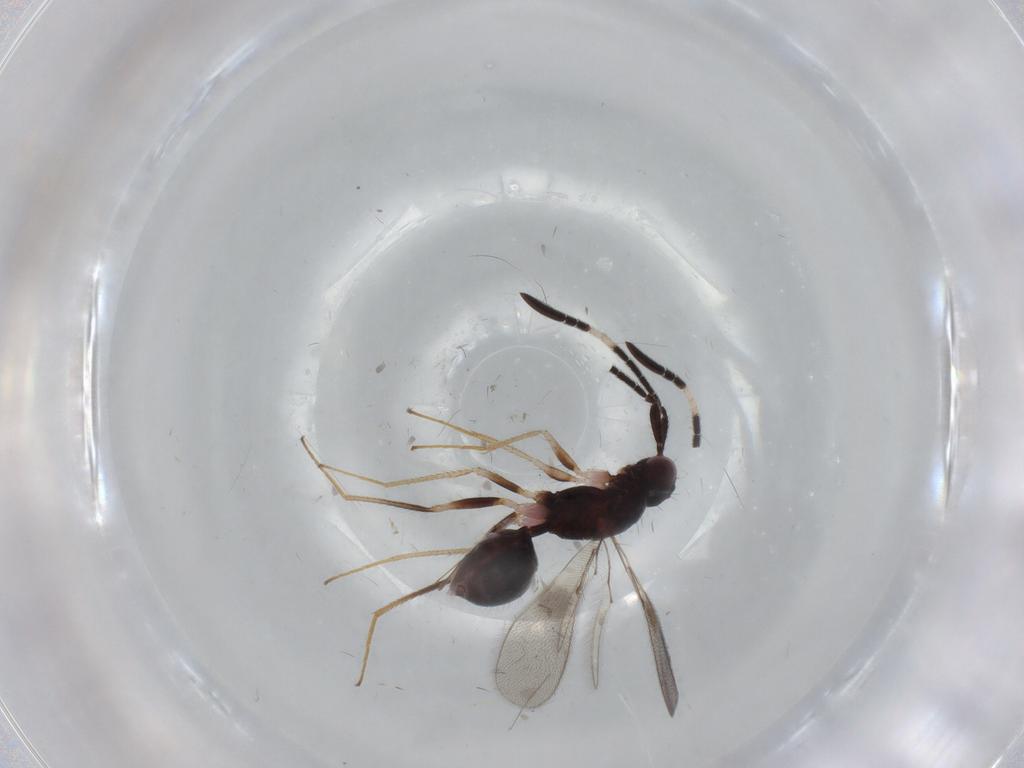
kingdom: Animalia
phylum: Arthropoda
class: Insecta
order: Hymenoptera
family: Mymaridae
